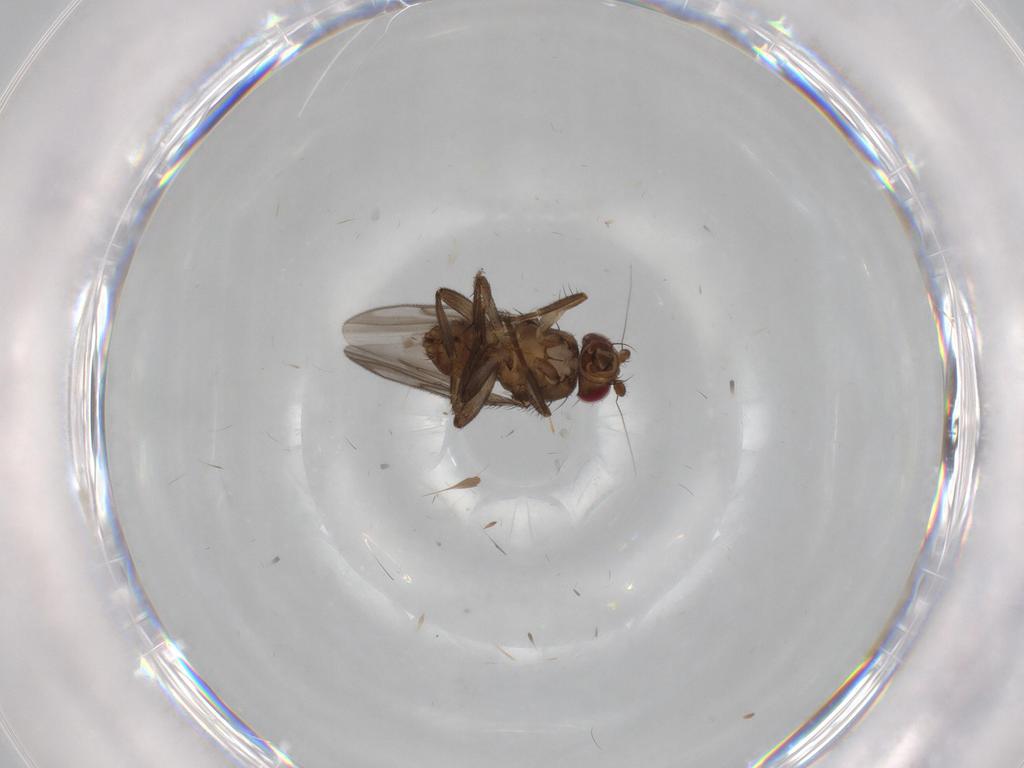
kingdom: Animalia
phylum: Arthropoda
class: Insecta
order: Diptera
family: Sphaeroceridae
